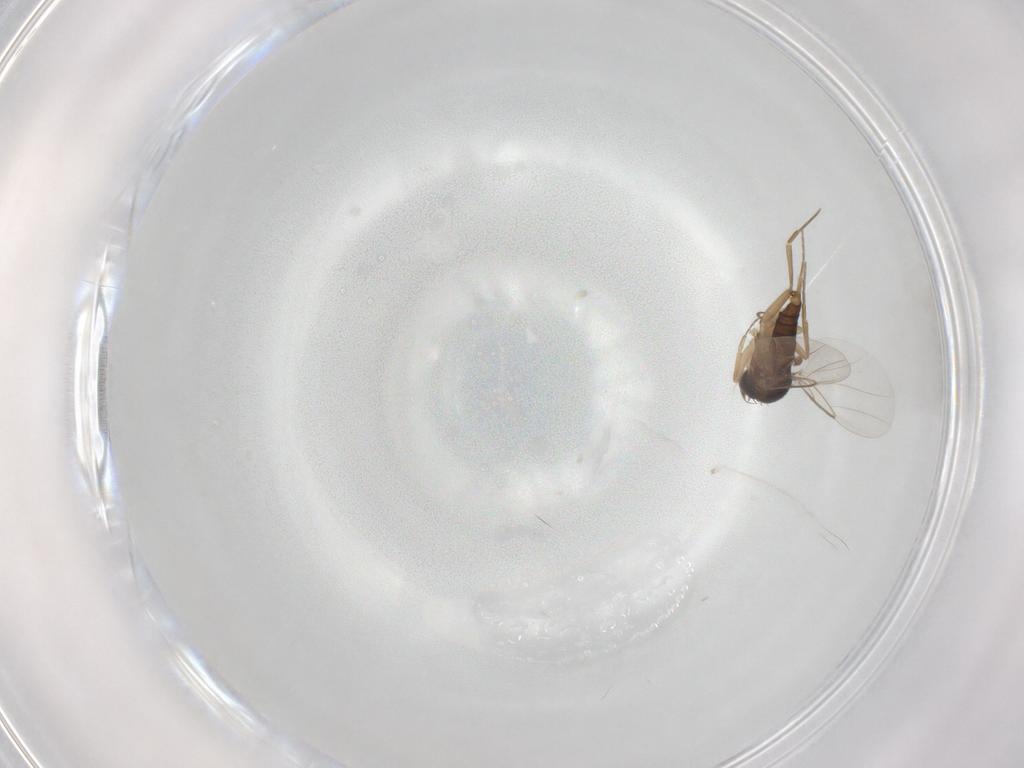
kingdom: Animalia
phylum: Arthropoda
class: Insecta
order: Diptera
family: Phoridae
